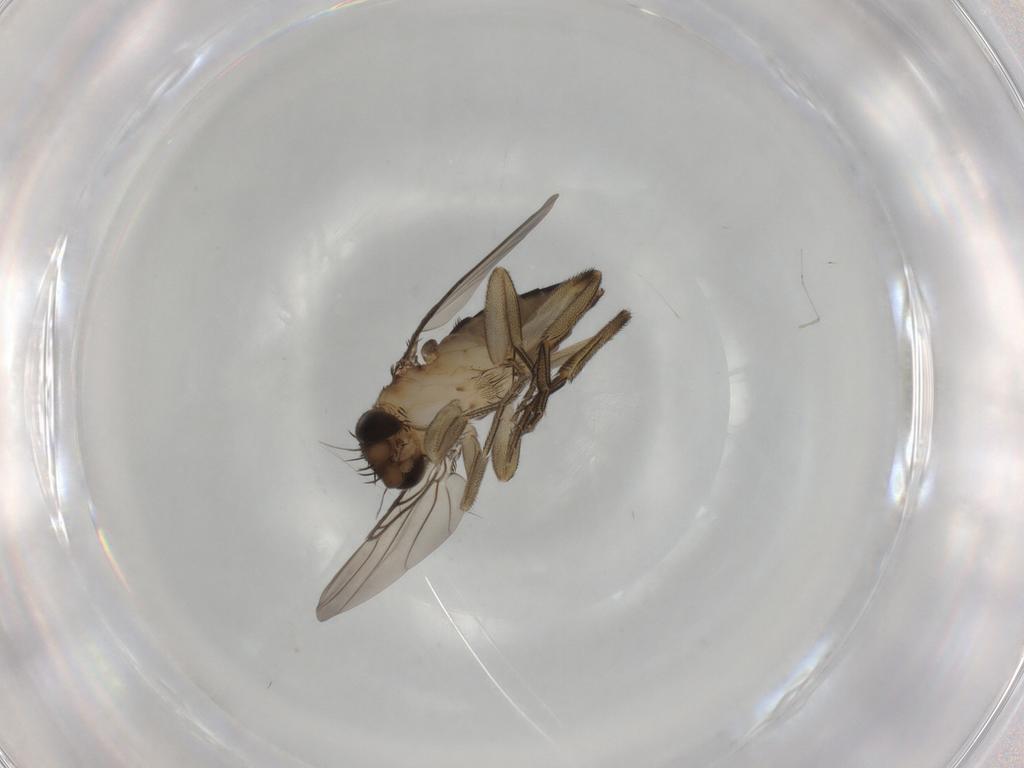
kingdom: Animalia
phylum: Arthropoda
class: Insecta
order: Diptera
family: Phoridae
